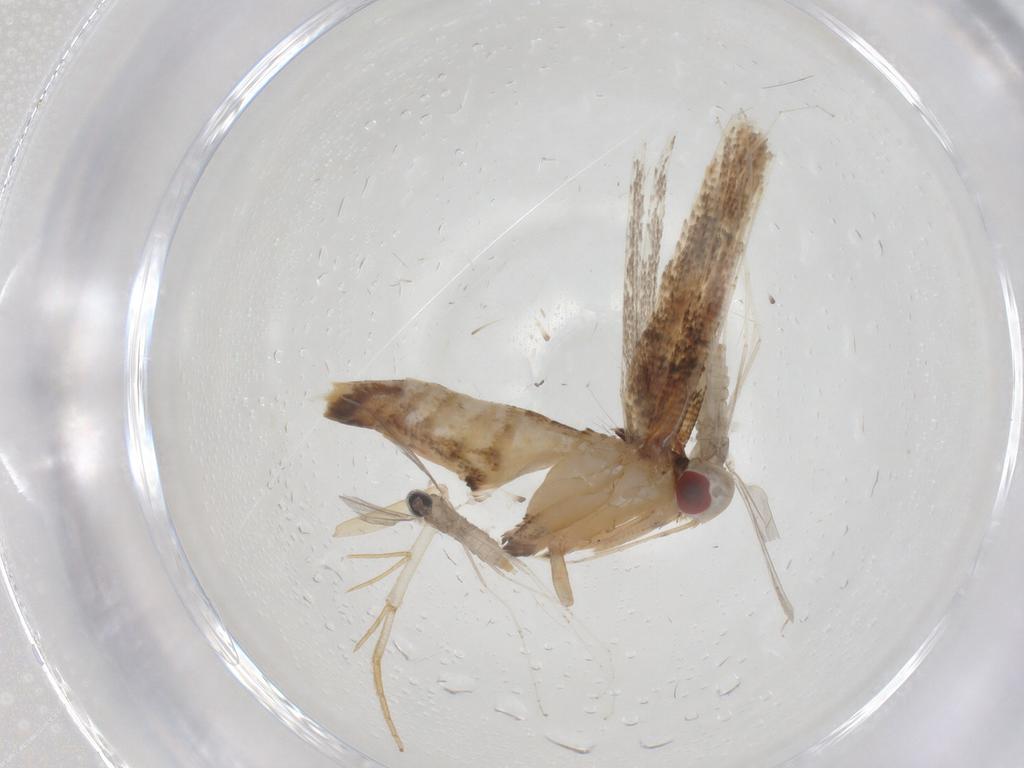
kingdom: Animalia
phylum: Arthropoda
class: Insecta
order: Lepidoptera
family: Cosmopterigidae
